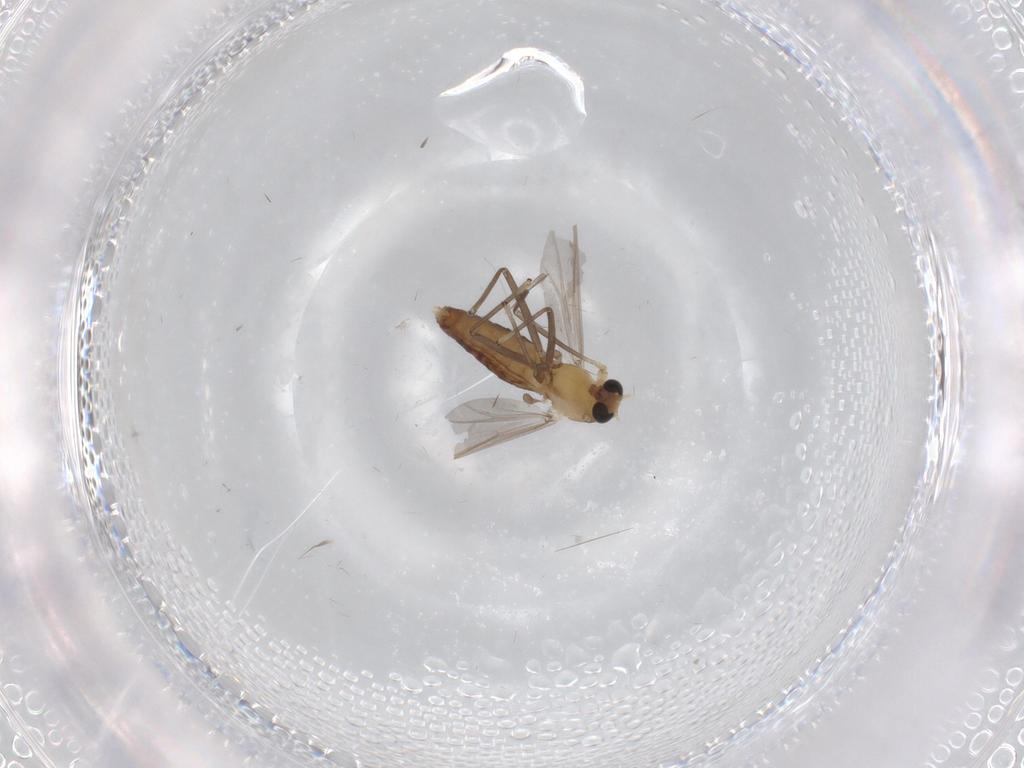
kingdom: Animalia
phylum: Arthropoda
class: Insecta
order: Diptera
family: Chironomidae
